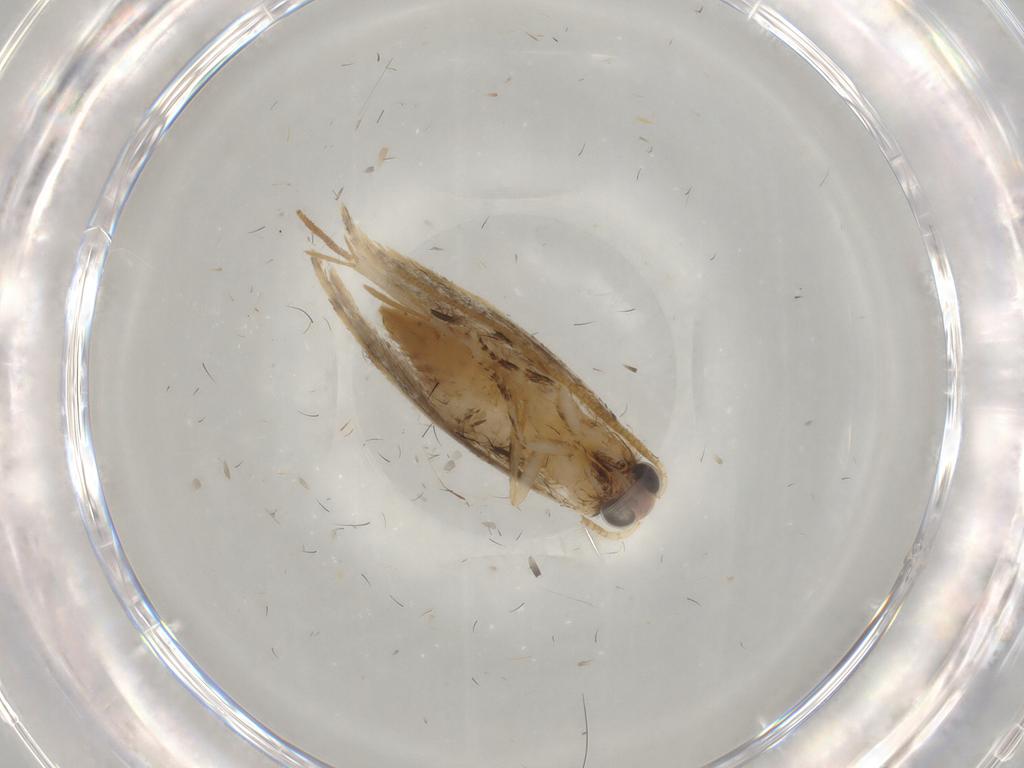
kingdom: Animalia
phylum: Arthropoda
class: Insecta
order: Lepidoptera
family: Tineidae
